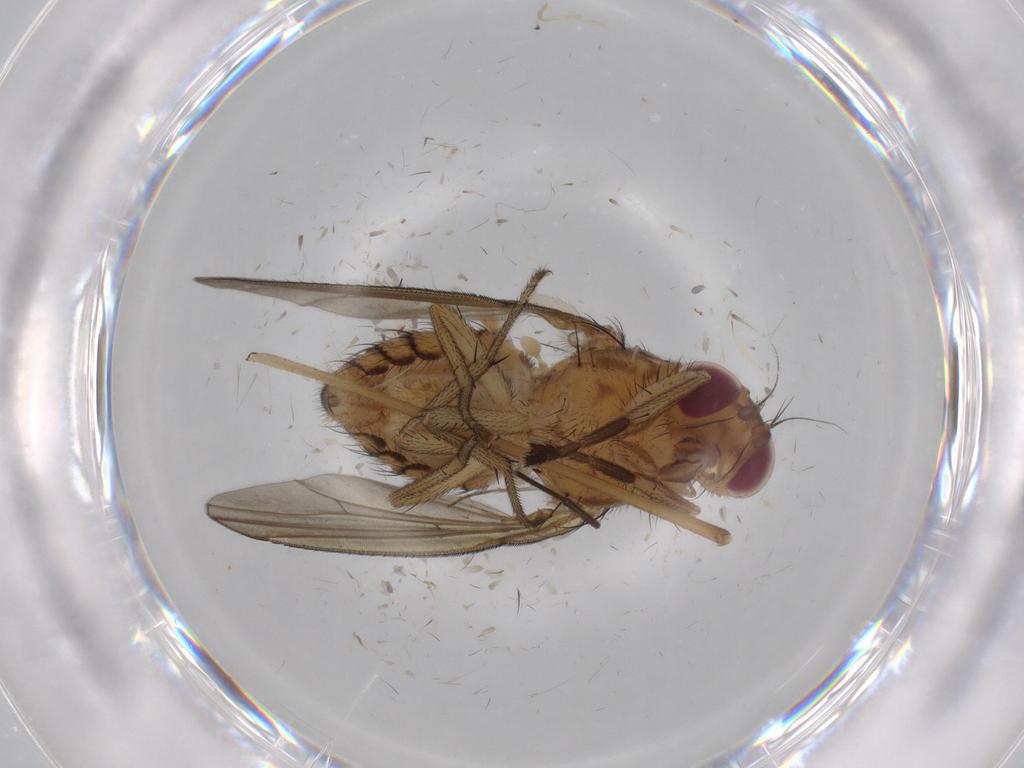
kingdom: Animalia
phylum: Arthropoda
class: Insecta
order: Diptera
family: Limoniidae
